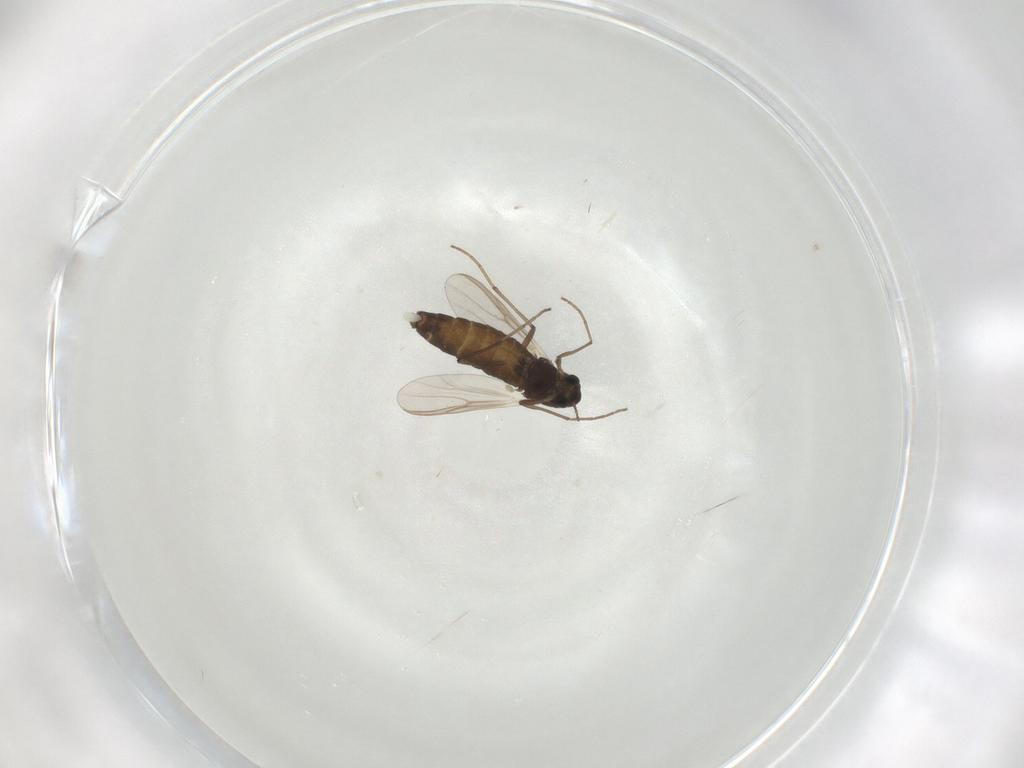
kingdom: Animalia
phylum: Arthropoda
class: Insecta
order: Diptera
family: Chironomidae
